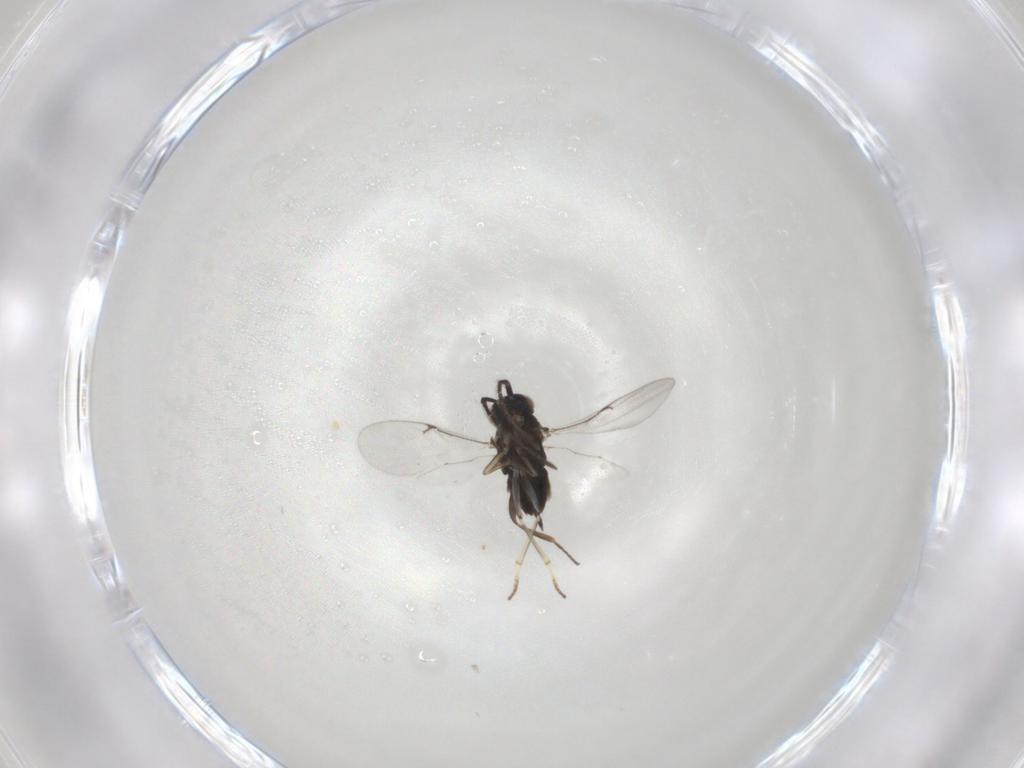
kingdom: Animalia
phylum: Arthropoda
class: Insecta
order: Hymenoptera
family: Encyrtidae
